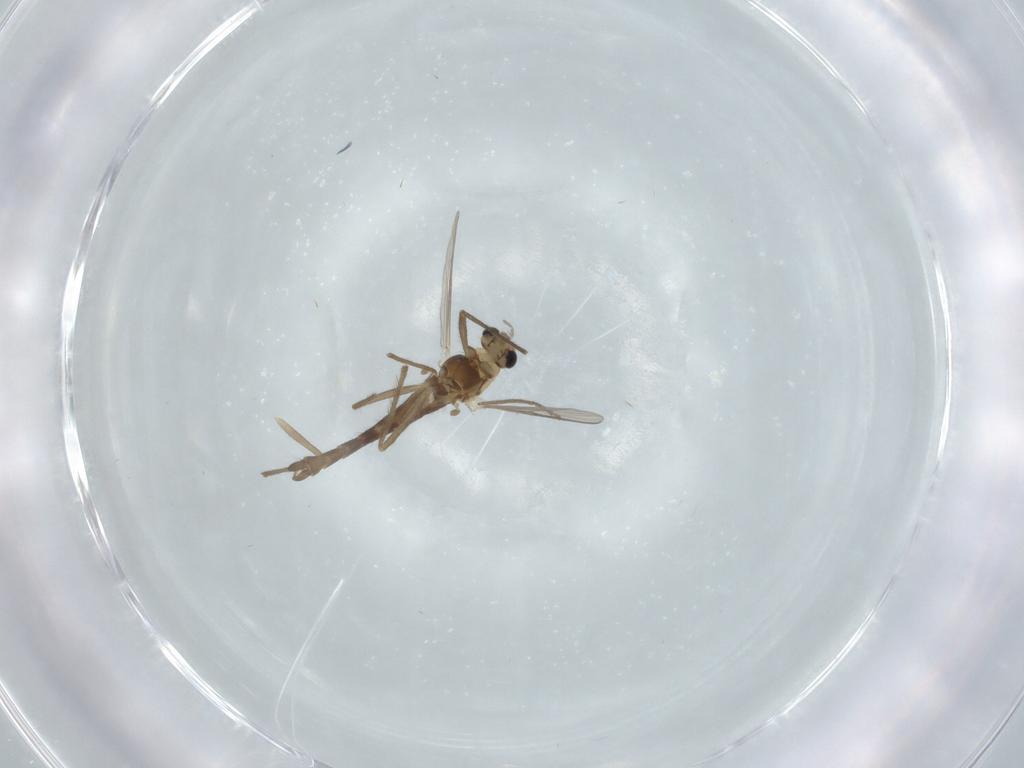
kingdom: Animalia
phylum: Arthropoda
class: Insecta
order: Diptera
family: Chironomidae
